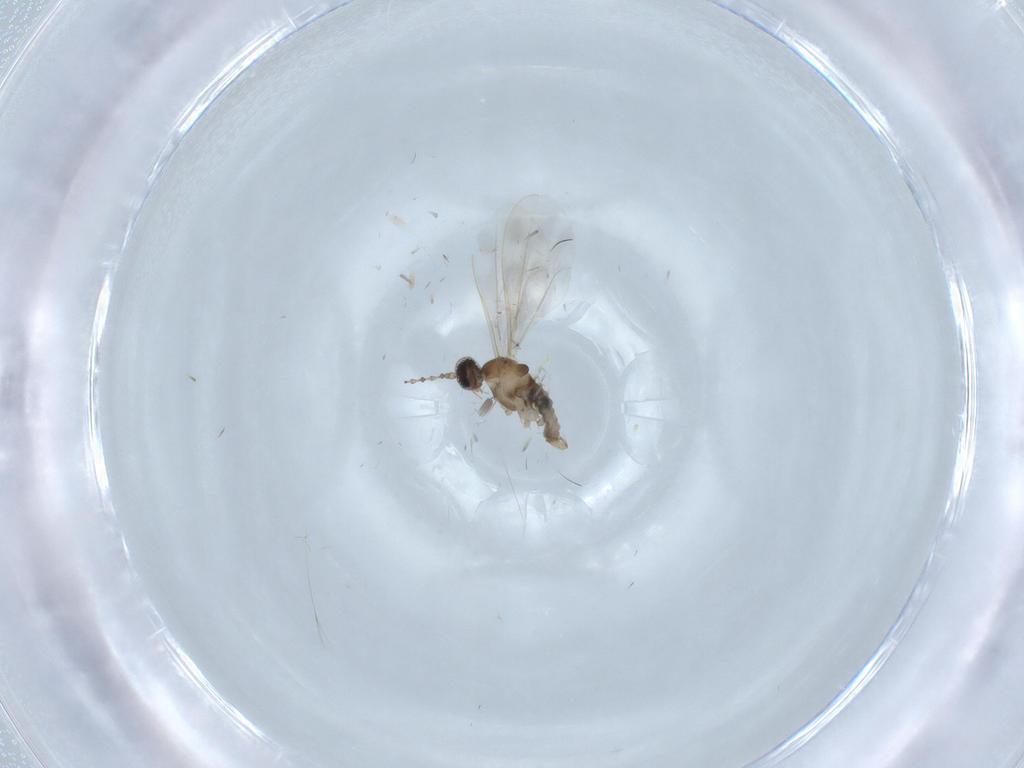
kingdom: Animalia
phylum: Arthropoda
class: Insecta
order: Diptera
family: Cecidomyiidae
